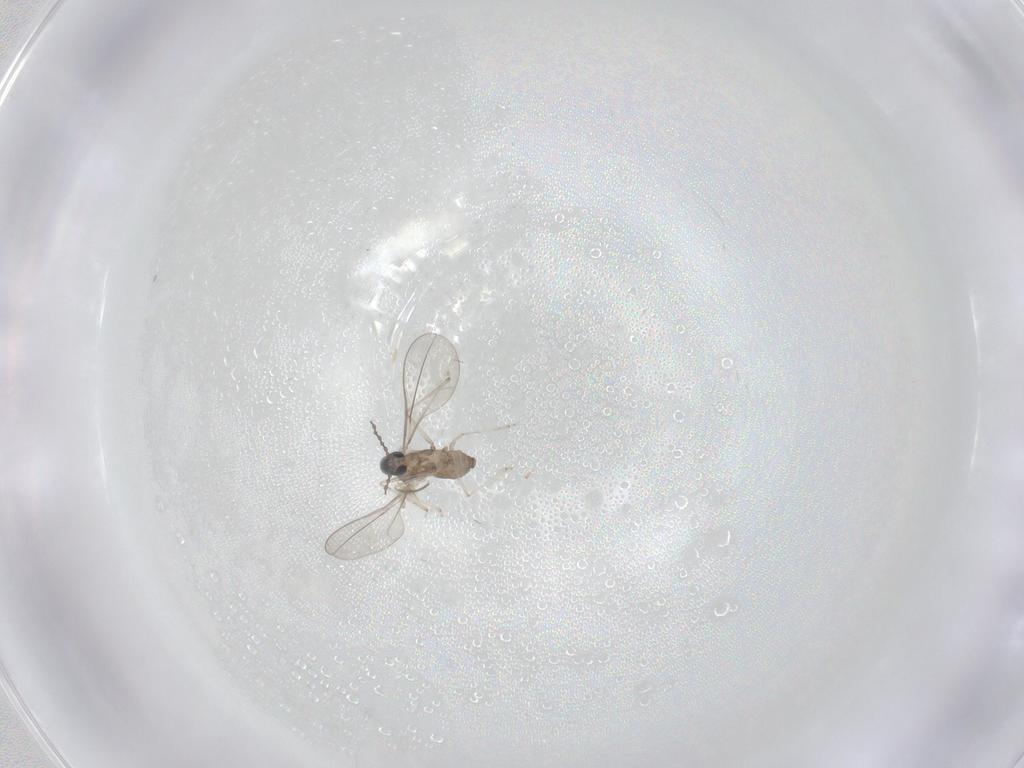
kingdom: Animalia
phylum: Arthropoda
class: Insecta
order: Diptera
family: Cecidomyiidae
